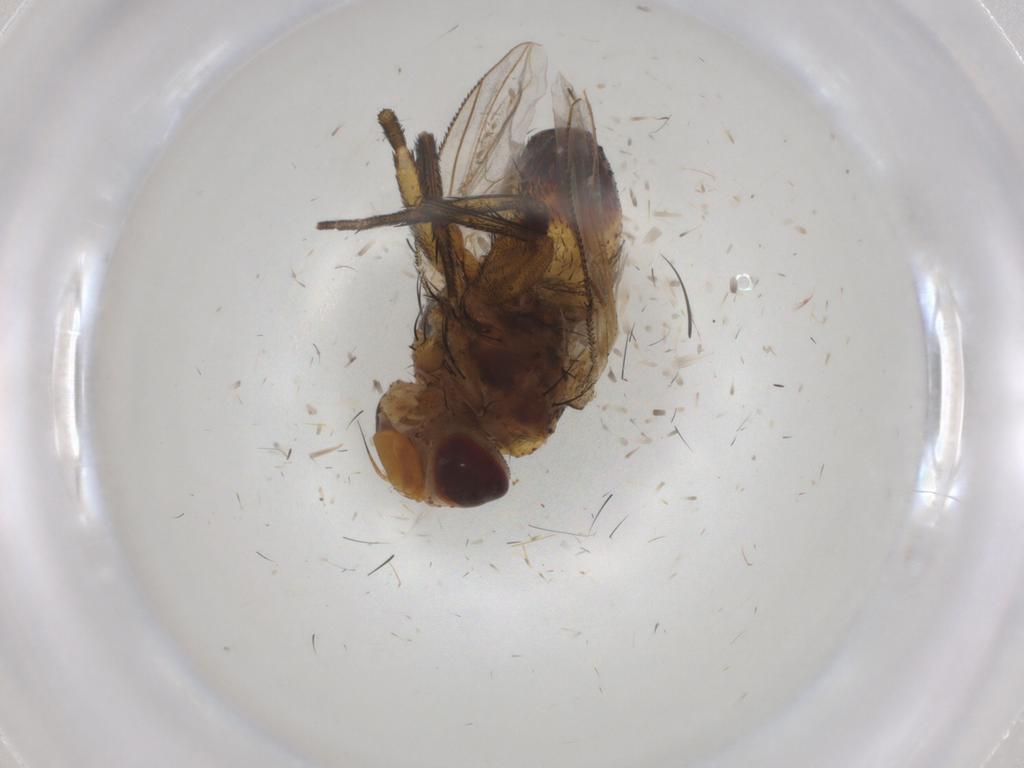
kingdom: Animalia
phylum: Arthropoda
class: Insecta
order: Diptera
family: Tachinidae
